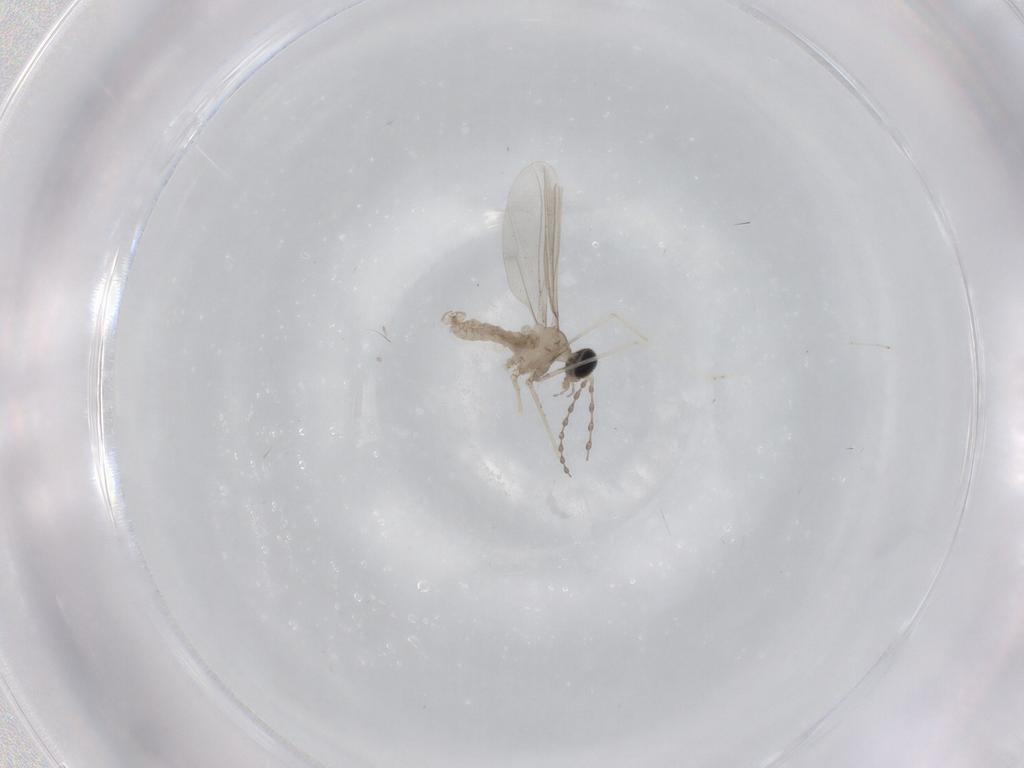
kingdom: Animalia
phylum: Arthropoda
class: Insecta
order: Diptera
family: Cecidomyiidae
